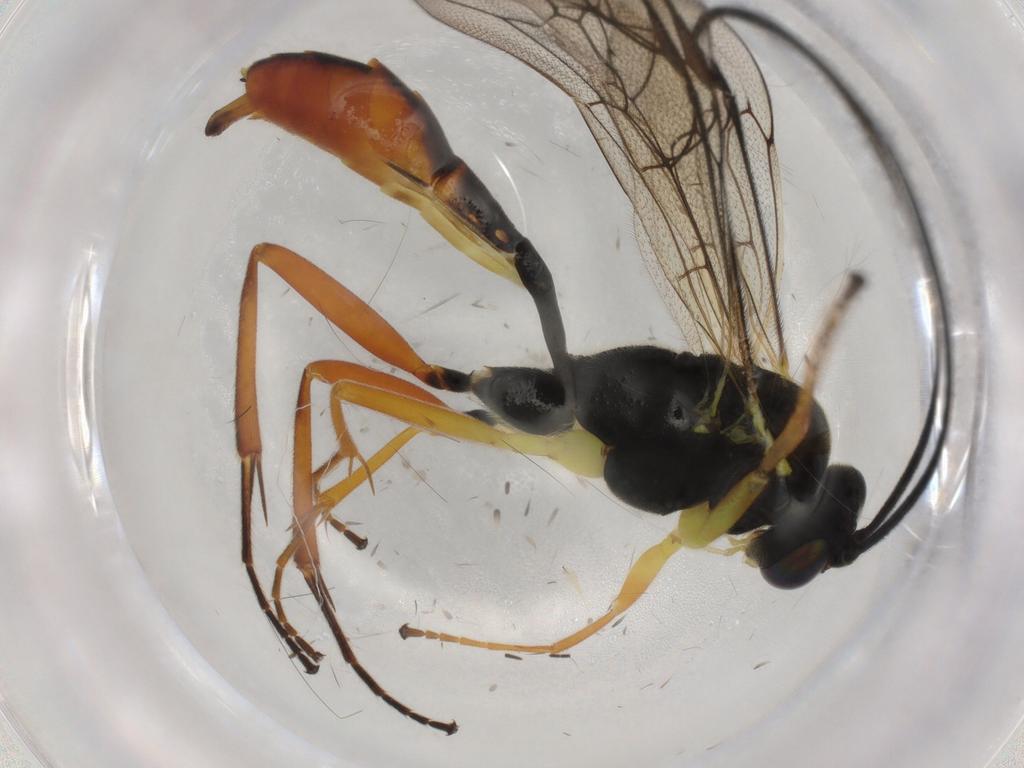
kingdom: Animalia
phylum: Arthropoda
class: Insecta
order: Hymenoptera
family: Ichneumonidae
